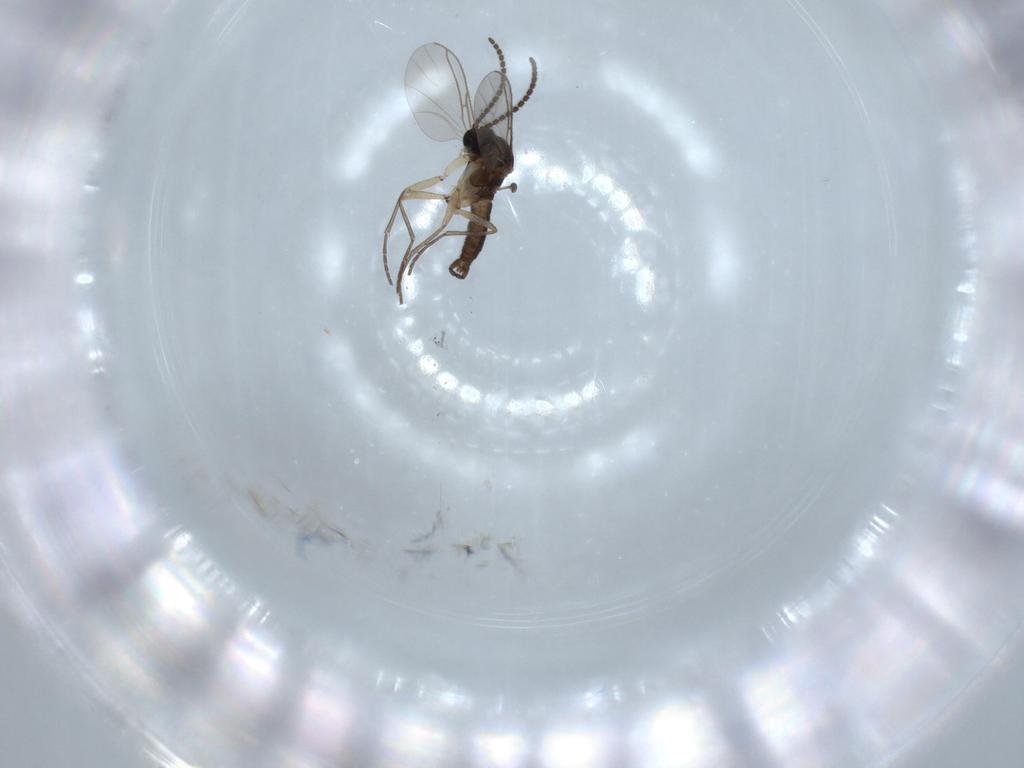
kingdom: Animalia
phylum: Arthropoda
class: Insecta
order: Diptera
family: Sciaridae
